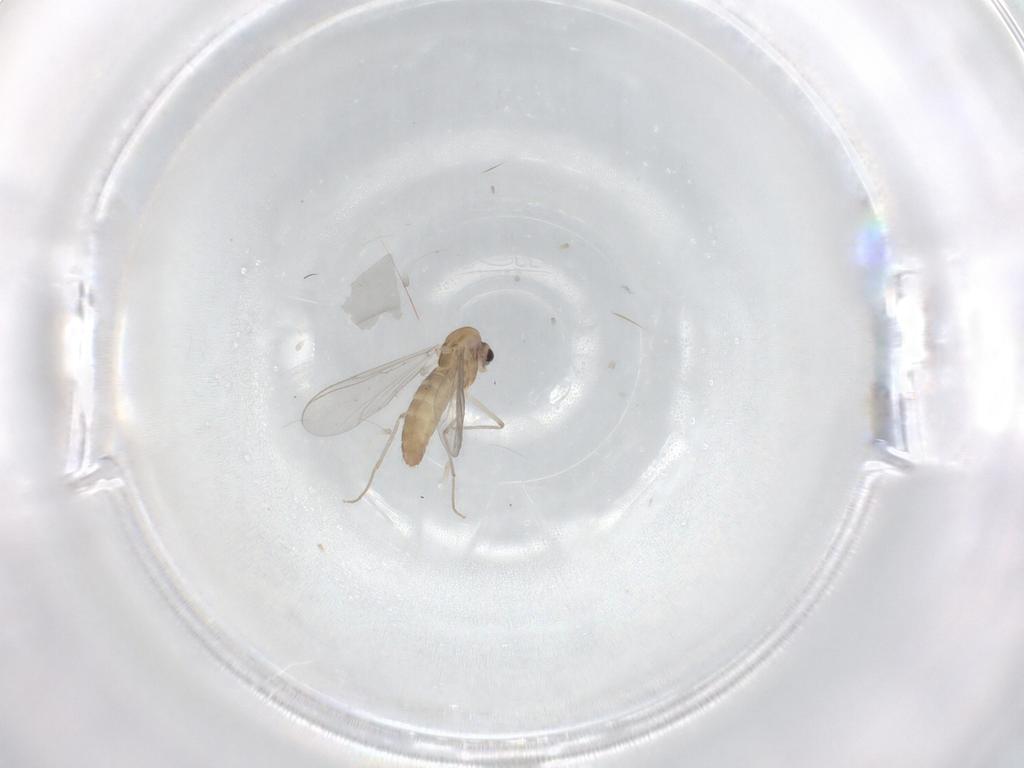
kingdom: Animalia
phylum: Arthropoda
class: Insecta
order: Diptera
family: Chironomidae
